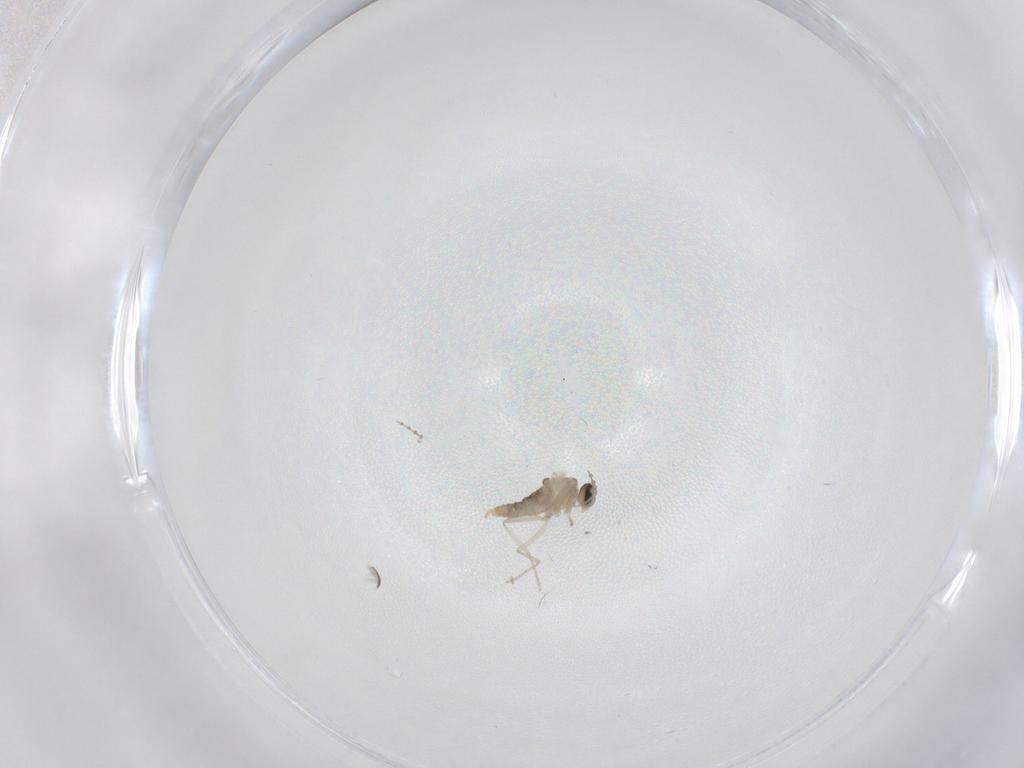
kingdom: Animalia
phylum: Arthropoda
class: Insecta
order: Diptera
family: Cecidomyiidae
